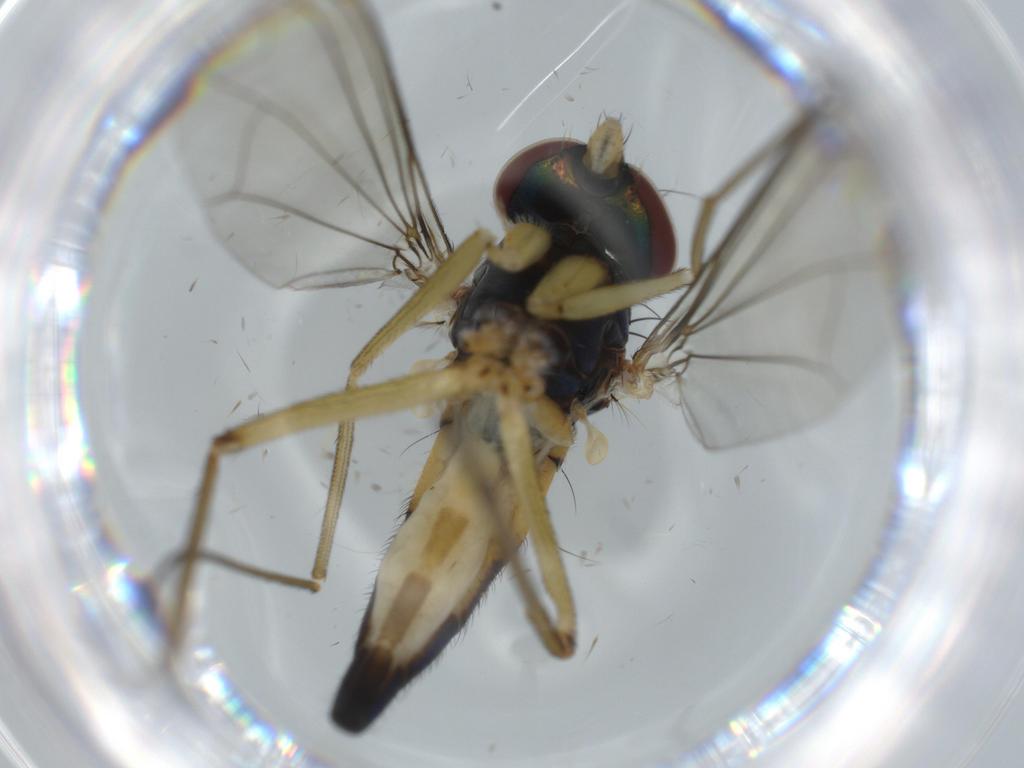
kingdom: Animalia
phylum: Arthropoda
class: Insecta
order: Diptera
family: Dolichopodidae
